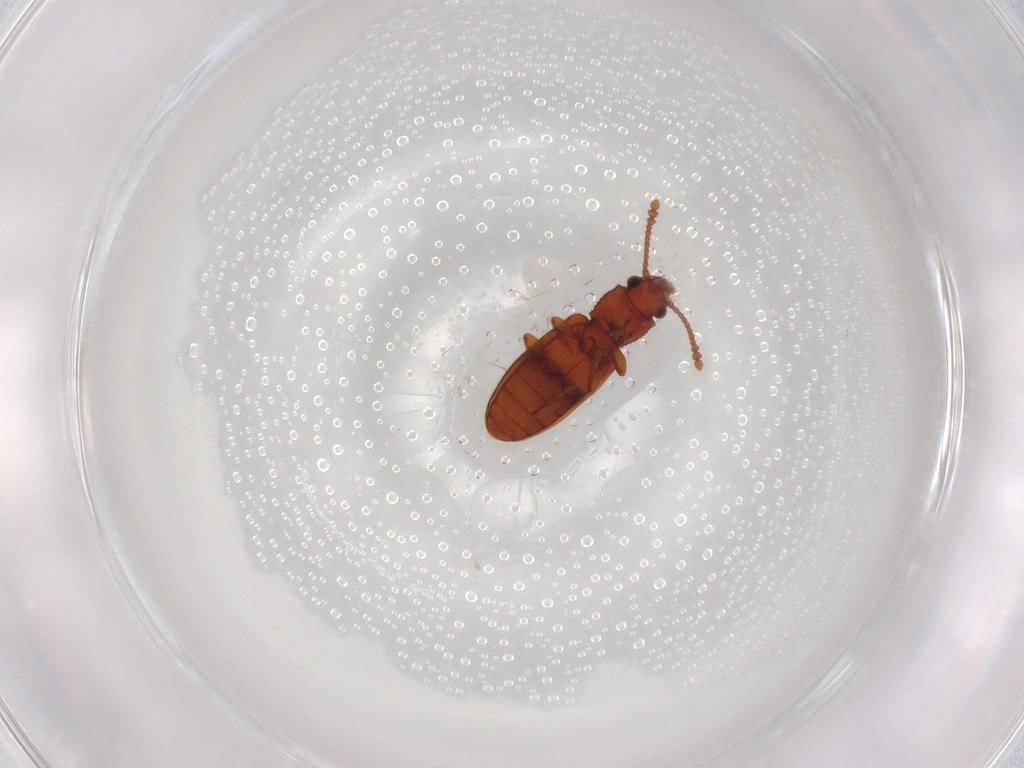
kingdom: Animalia
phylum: Arthropoda
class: Insecta
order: Coleoptera
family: Silvanidae
